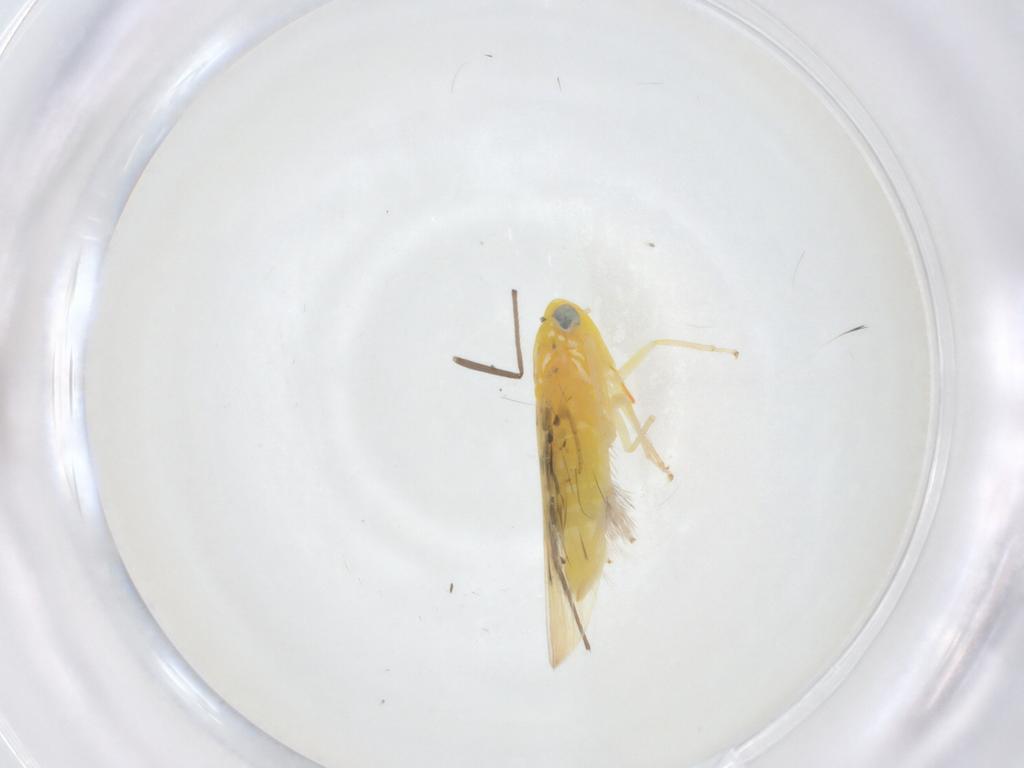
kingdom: Animalia
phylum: Arthropoda
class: Insecta
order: Hemiptera
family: Cicadellidae
